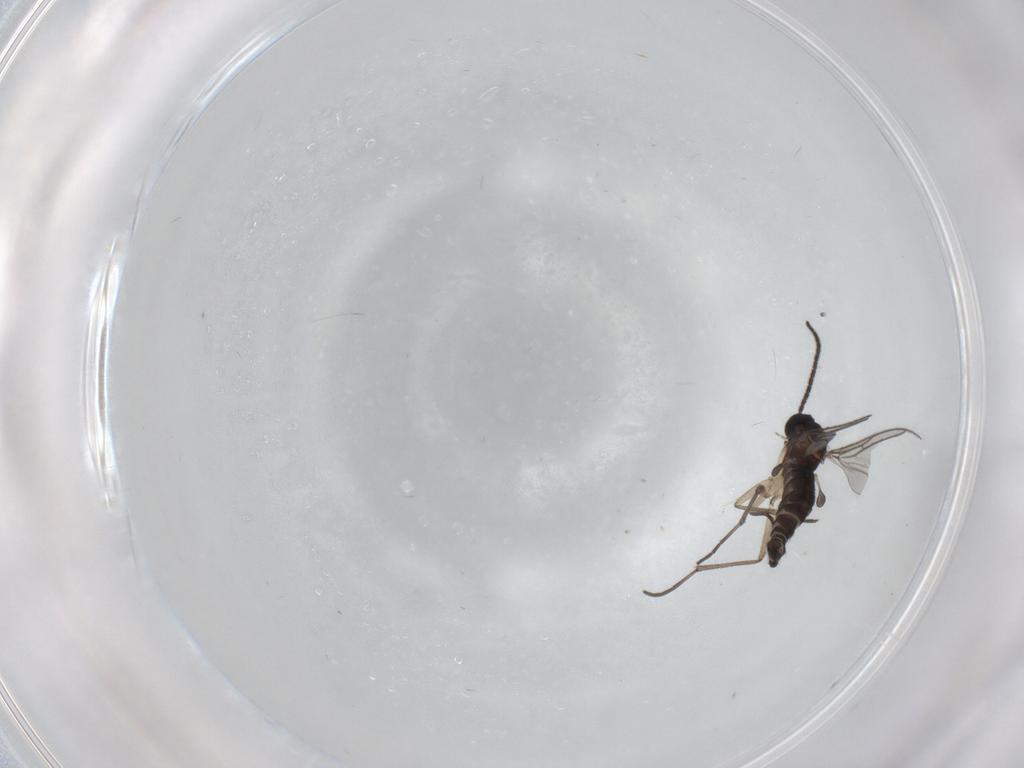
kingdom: Animalia
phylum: Arthropoda
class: Insecta
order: Diptera
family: Sciaridae
